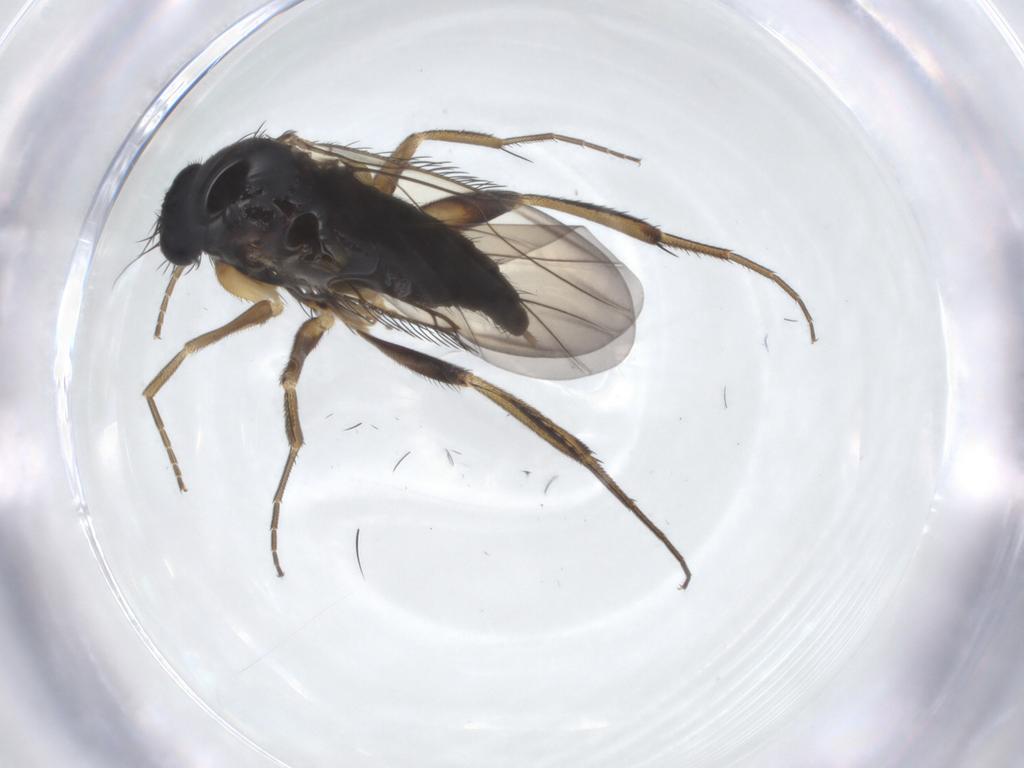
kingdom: Animalia
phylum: Arthropoda
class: Insecta
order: Diptera
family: Phoridae
